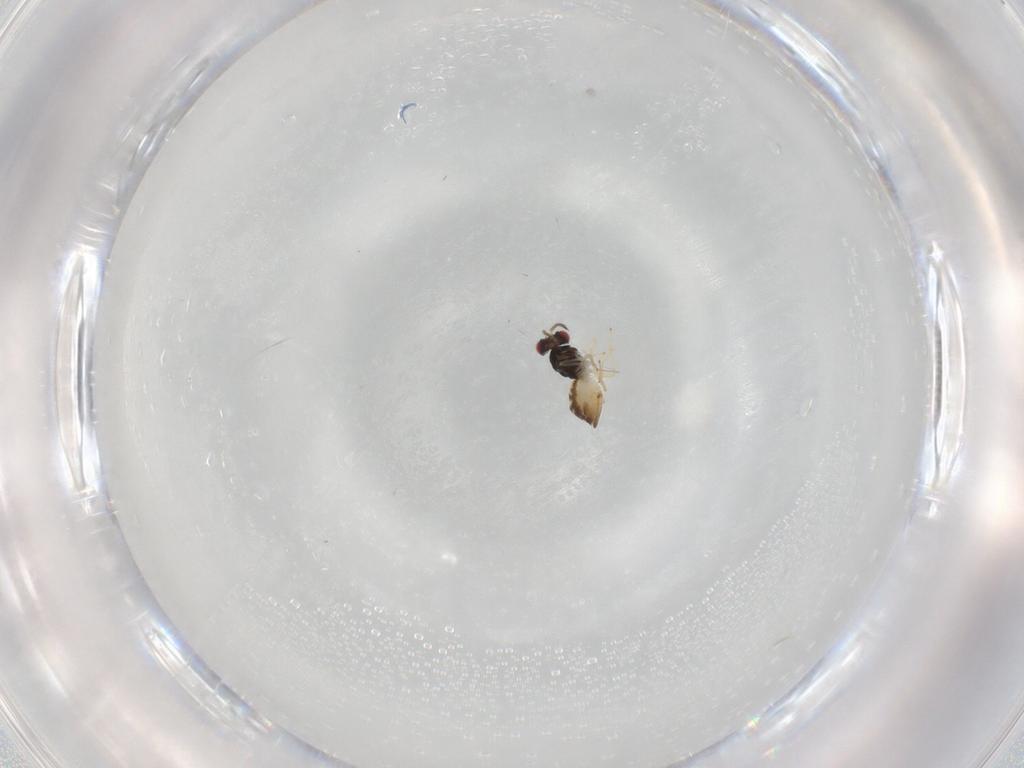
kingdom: Animalia
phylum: Arthropoda
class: Insecta
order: Hymenoptera
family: Eulophidae
